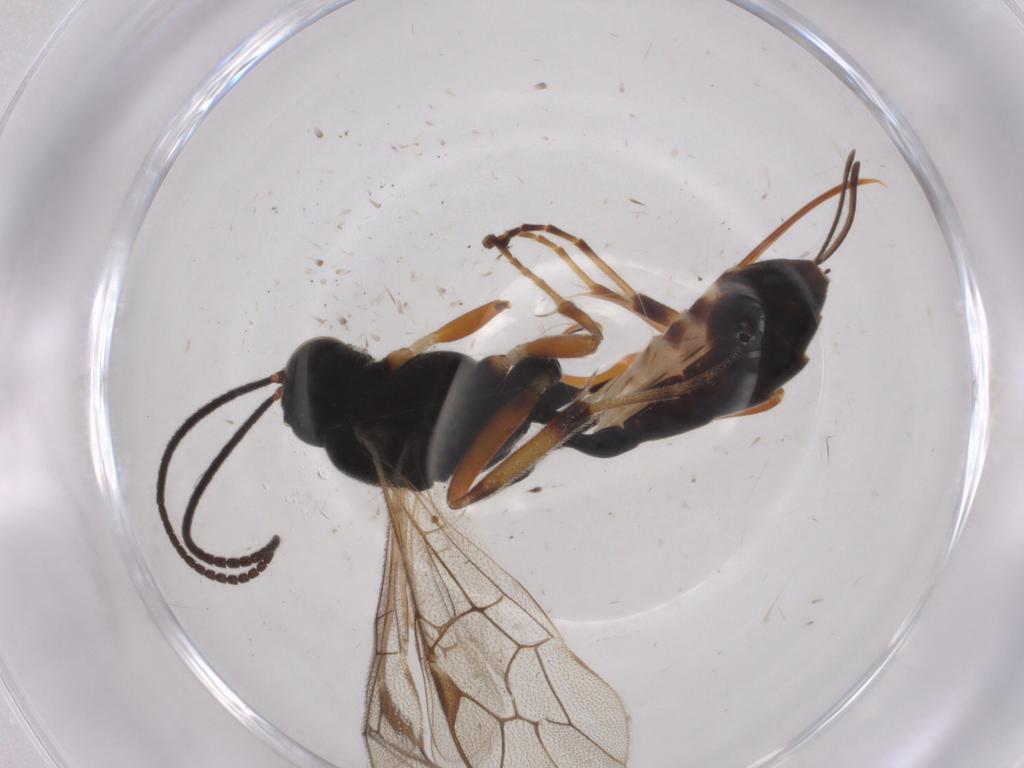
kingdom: Animalia
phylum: Arthropoda
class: Insecta
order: Hymenoptera
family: Ichneumonidae
